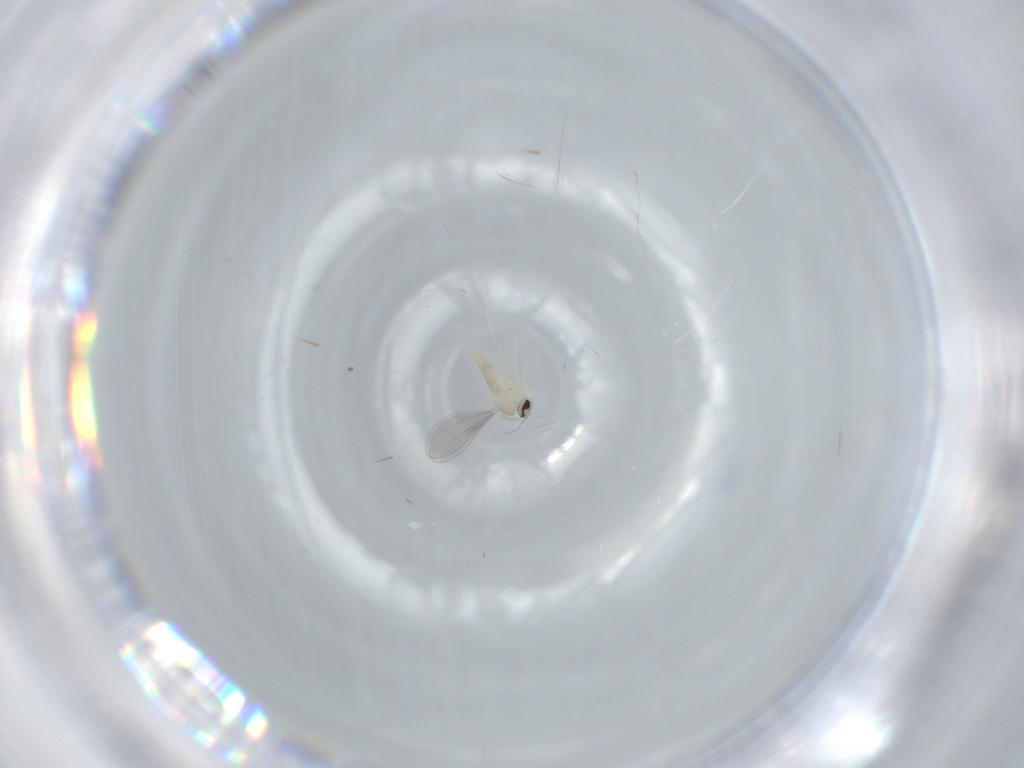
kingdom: Animalia
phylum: Arthropoda
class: Insecta
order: Diptera
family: Cecidomyiidae
